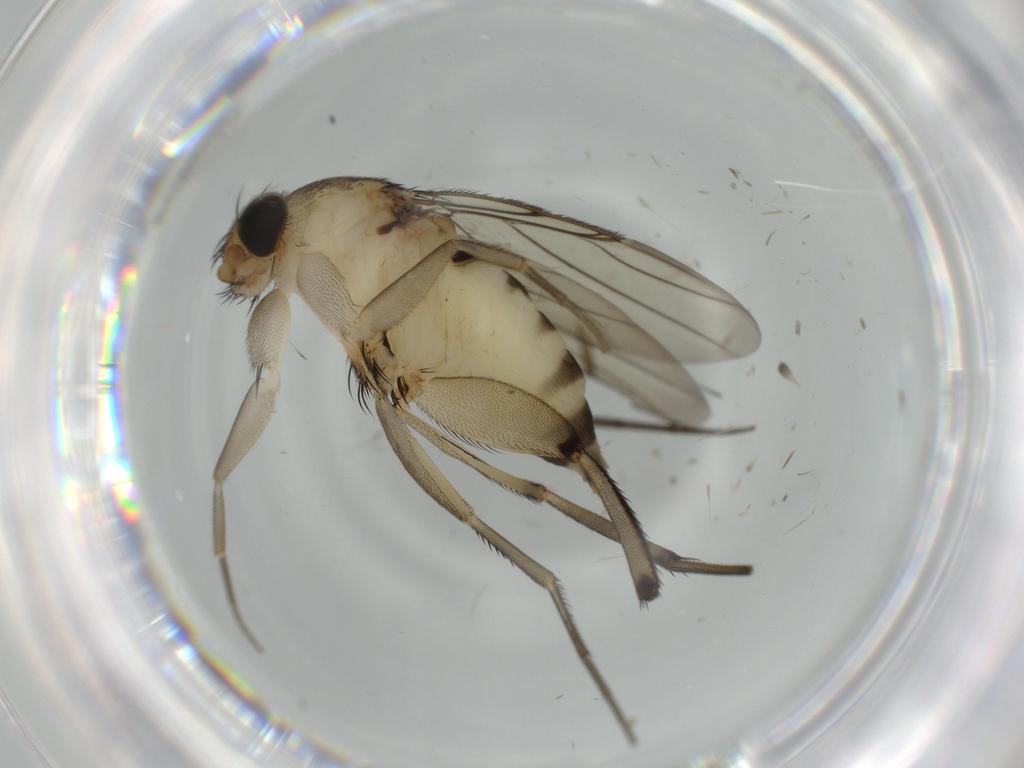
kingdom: Animalia
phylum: Arthropoda
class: Insecta
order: Diptera
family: Phoridae
